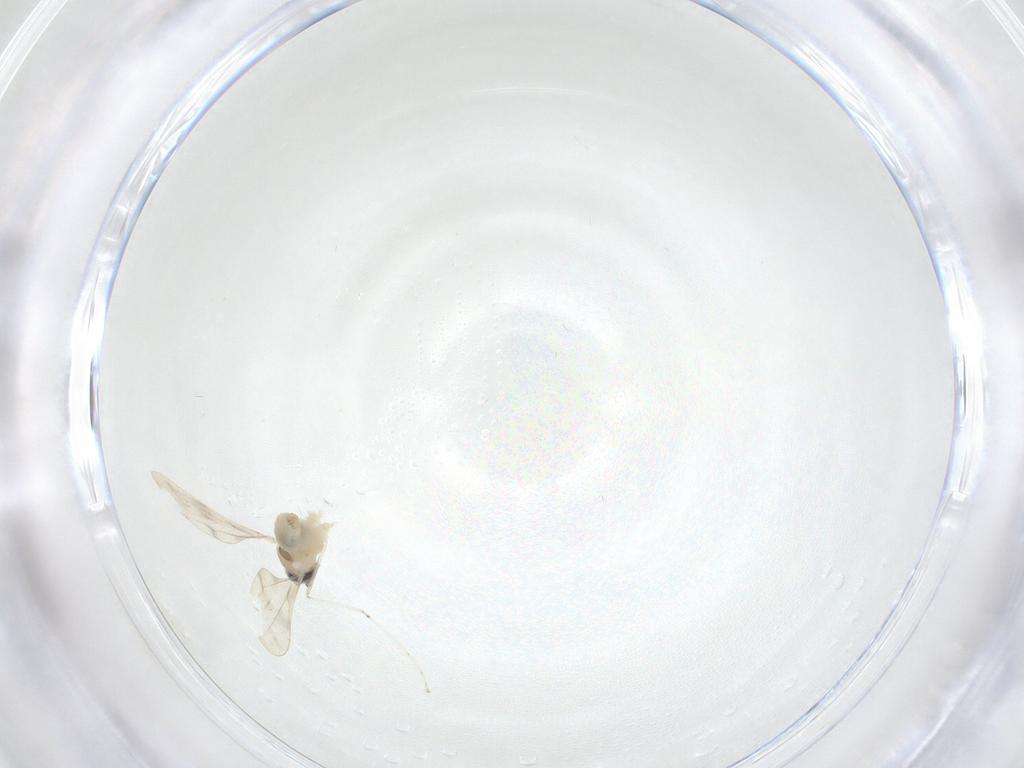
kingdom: Animalia
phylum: Arthropoda
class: Insecta
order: Diptera
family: Cecidomyiidae
